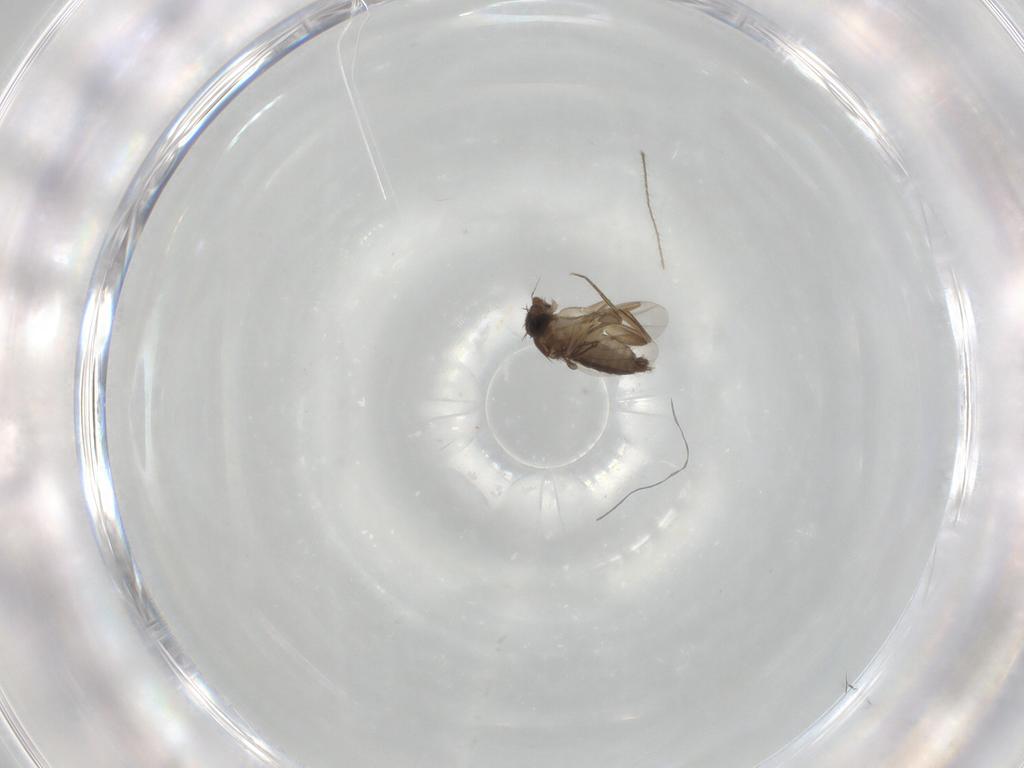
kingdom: Animalia
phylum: Arthropoda
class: Insecta
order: Diptera
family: Phoridae
